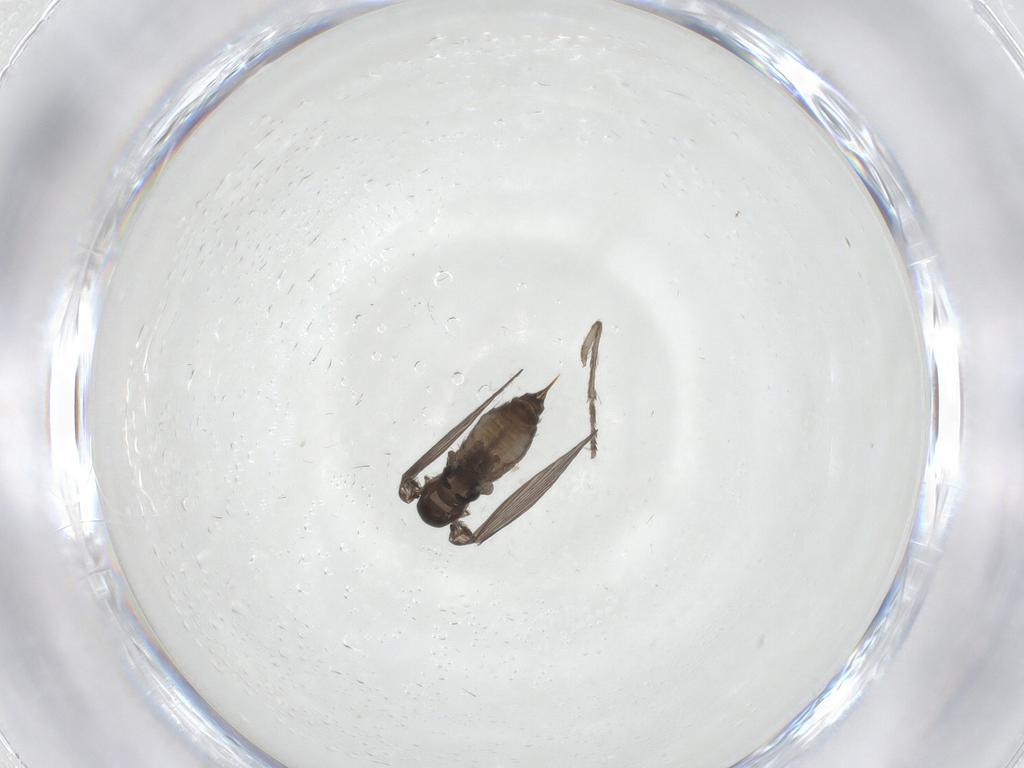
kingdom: Animalia
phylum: Arthropoda
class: Insecta
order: Diptera
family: Psychodidae
